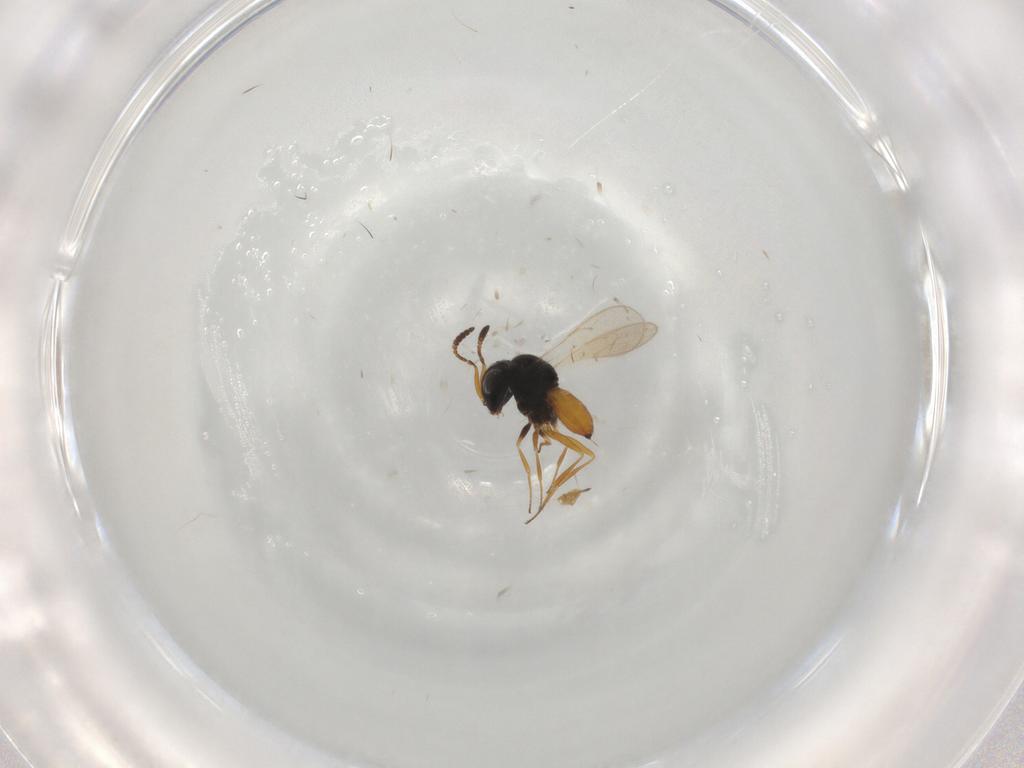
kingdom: Animalia
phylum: Arthropoda
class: Insecta
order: Hymenoptera
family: Scelionidae
